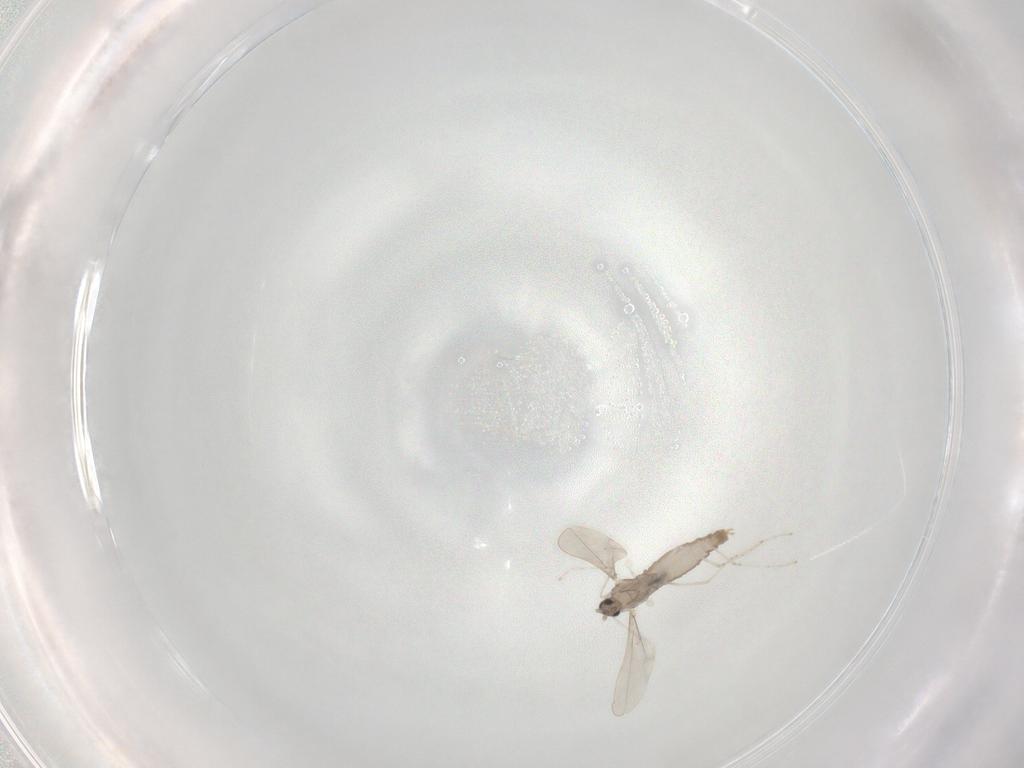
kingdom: Animalia
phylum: Arthropoda
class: Insecta
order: Diptera
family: Cecidomyiidae
